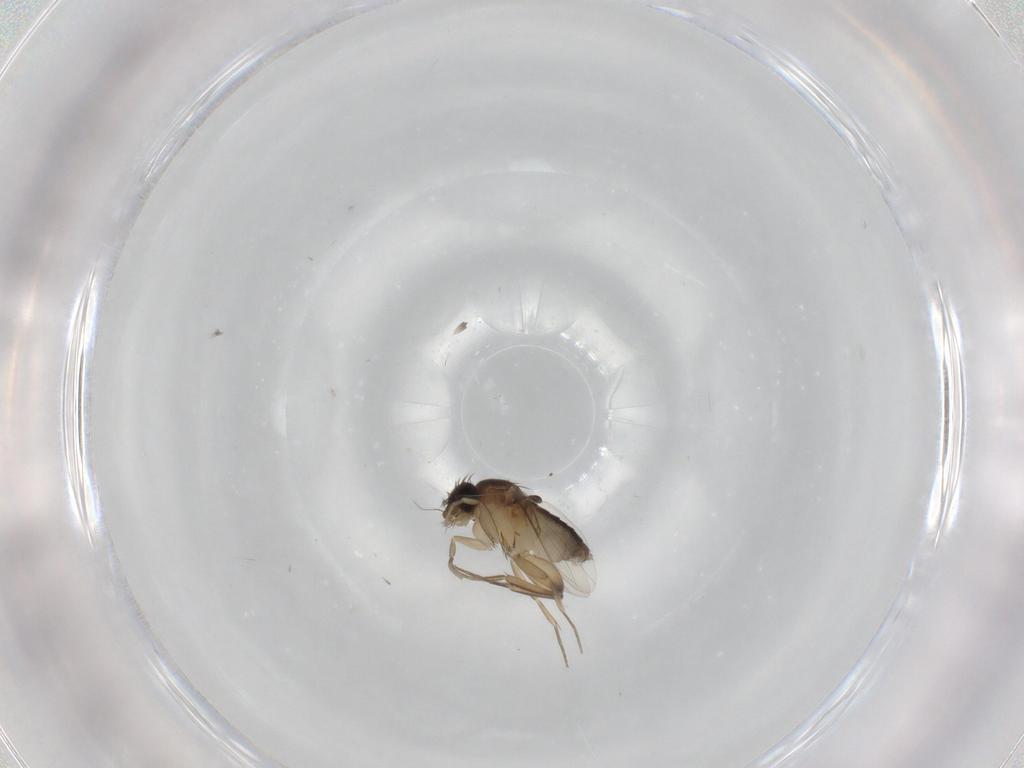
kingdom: Animalia
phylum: Arthropoda
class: Insecta
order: Diptera
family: Phoridae
